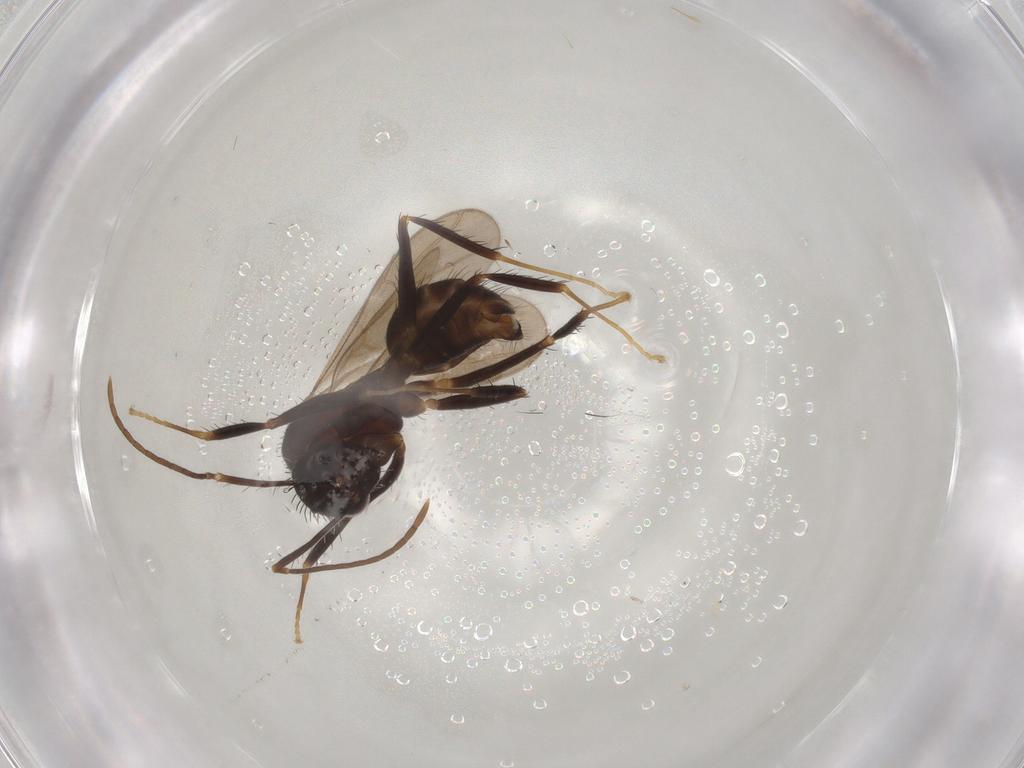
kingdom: Animalia
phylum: Arthropoda
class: Insecta
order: Hymenoptera
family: Formicidae
